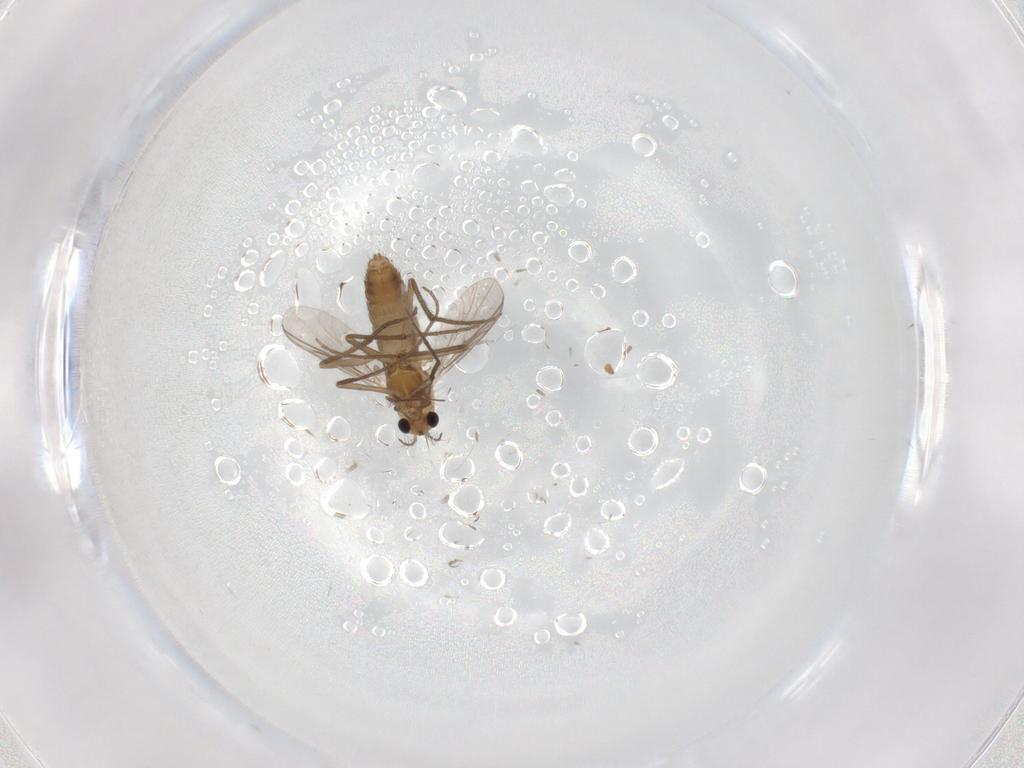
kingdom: Animalia
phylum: Arthropoda
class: Insecta
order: Diptera
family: Chironomidae
